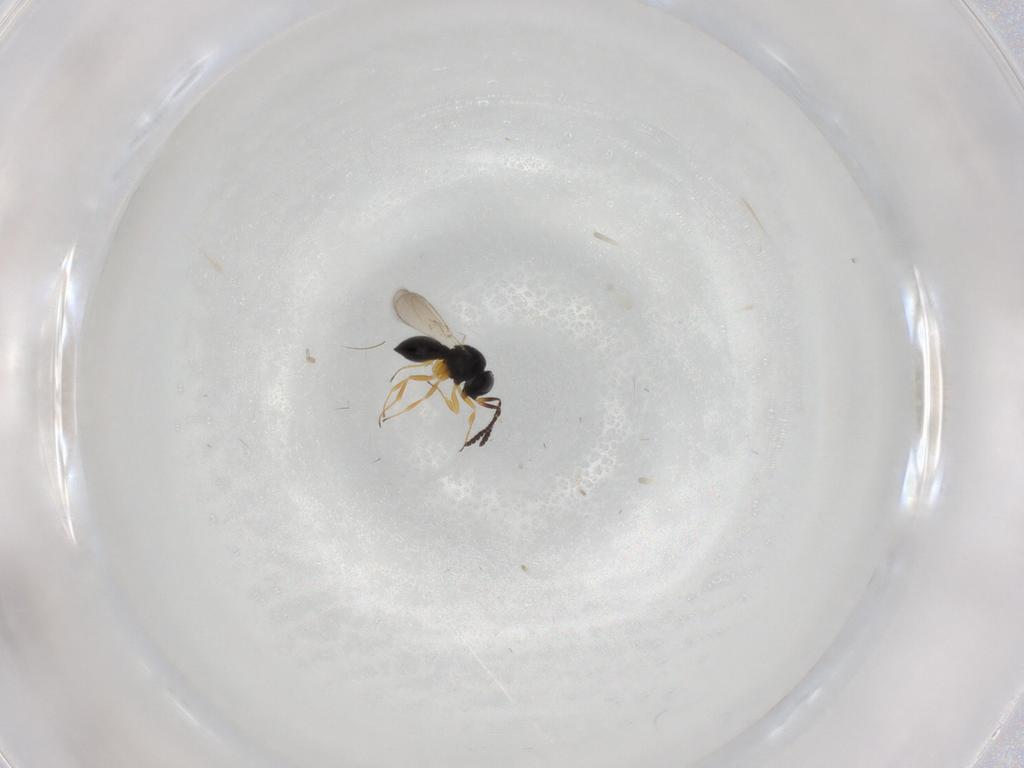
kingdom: Animalia
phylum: Arthropoda
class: Insecta
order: Hymenoptera
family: Scelionidae
